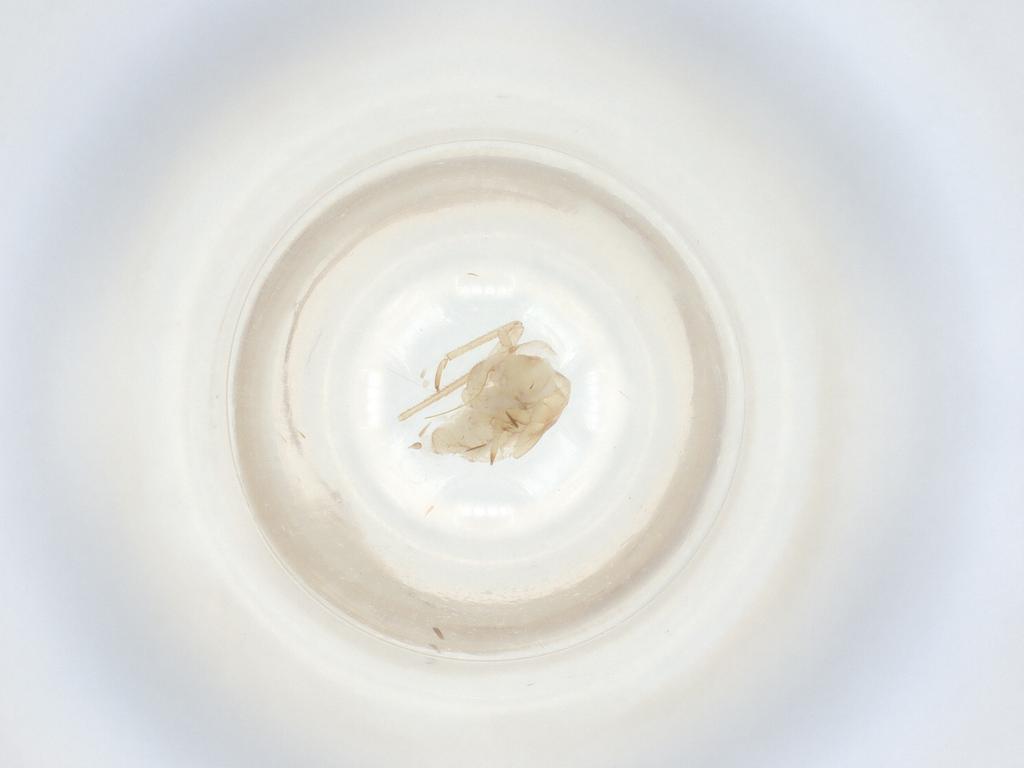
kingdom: Animalia
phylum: Arthropoda
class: Insecta
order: Hemiptera
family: Miridae
